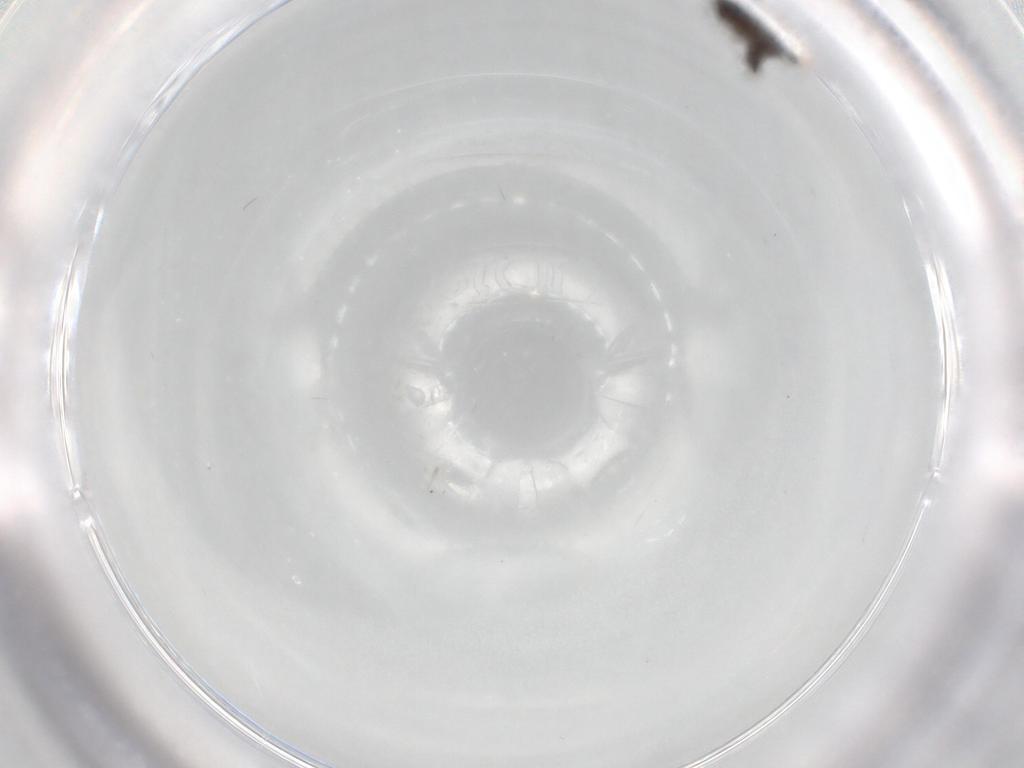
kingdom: Animalia
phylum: Arthropoda
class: Insecta
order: Diptera
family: Phoridae
